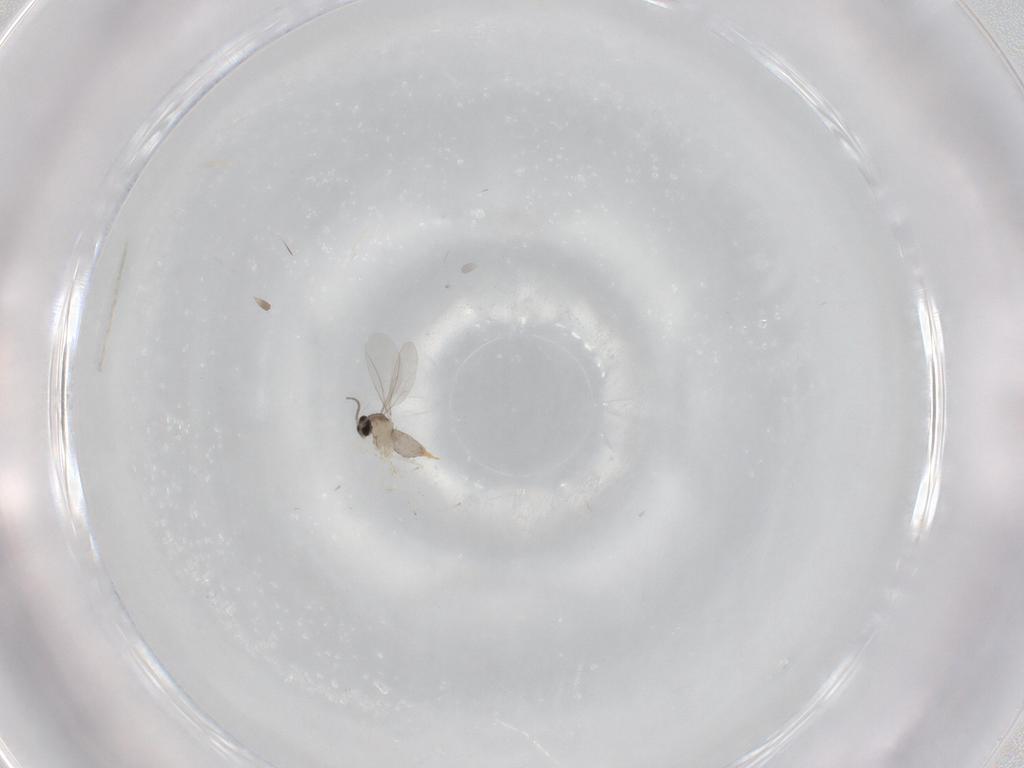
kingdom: Animalia
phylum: Arthropoda
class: Insecta
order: Diptera
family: Cecidomyiidae
